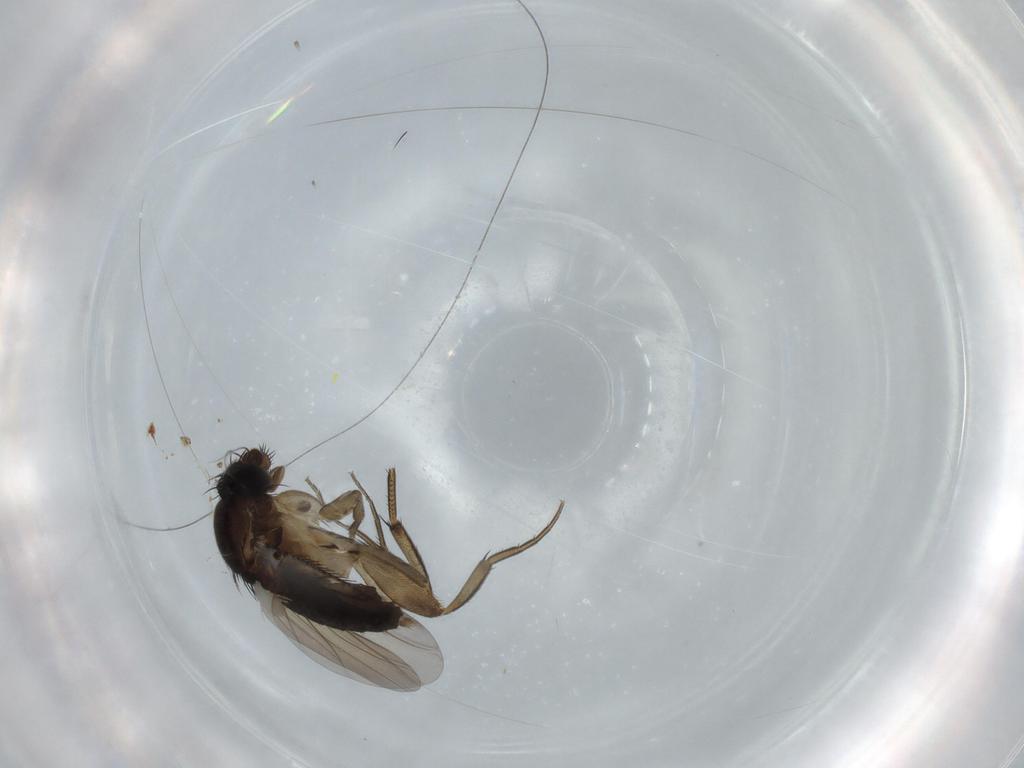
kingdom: Animalia
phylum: Arthropoda
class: Insecta
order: Diptera
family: Phoridae
